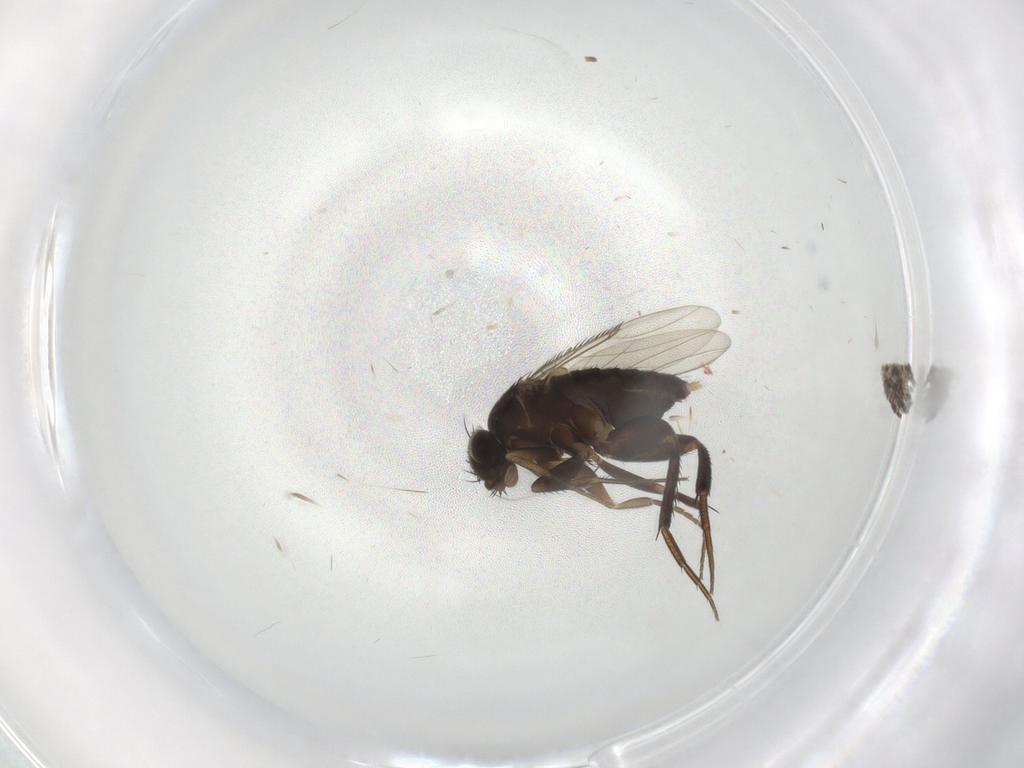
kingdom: Animalia
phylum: Arthropoda
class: Insecta
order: Diptera
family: Phoridae
